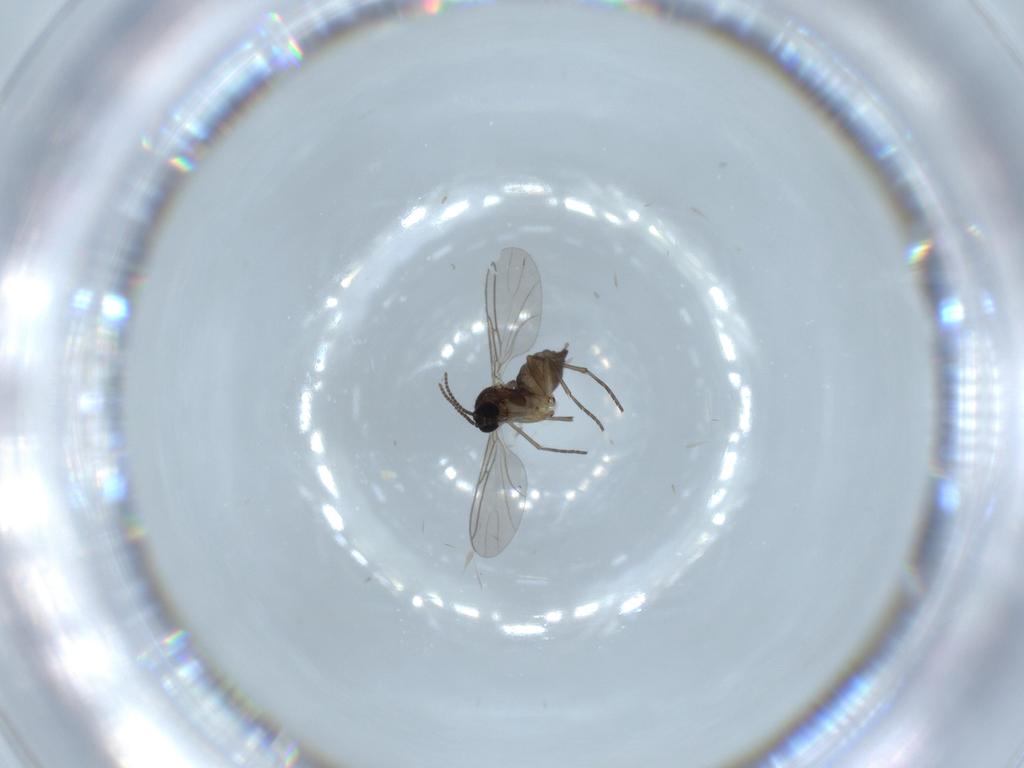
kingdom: Animalia
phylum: Arthropoda
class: Insecta
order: Diptera
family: Sciaridae
